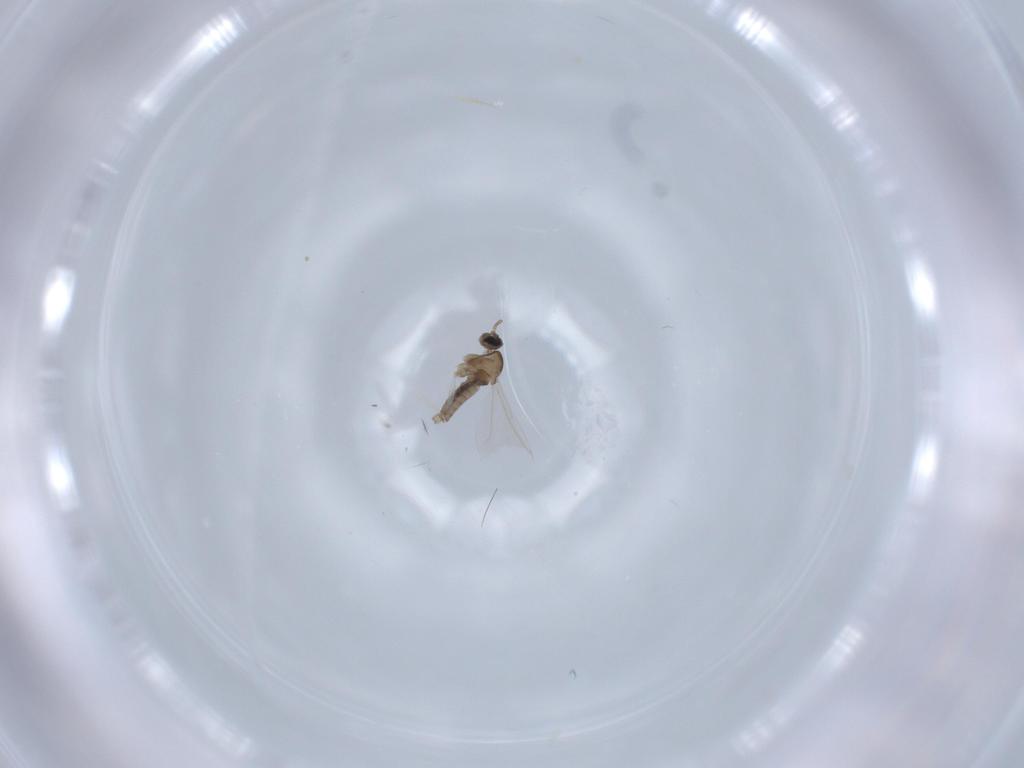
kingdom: Animalia
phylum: Arthropoda
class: Insecta
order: Diptera
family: Cecidomyiidae
